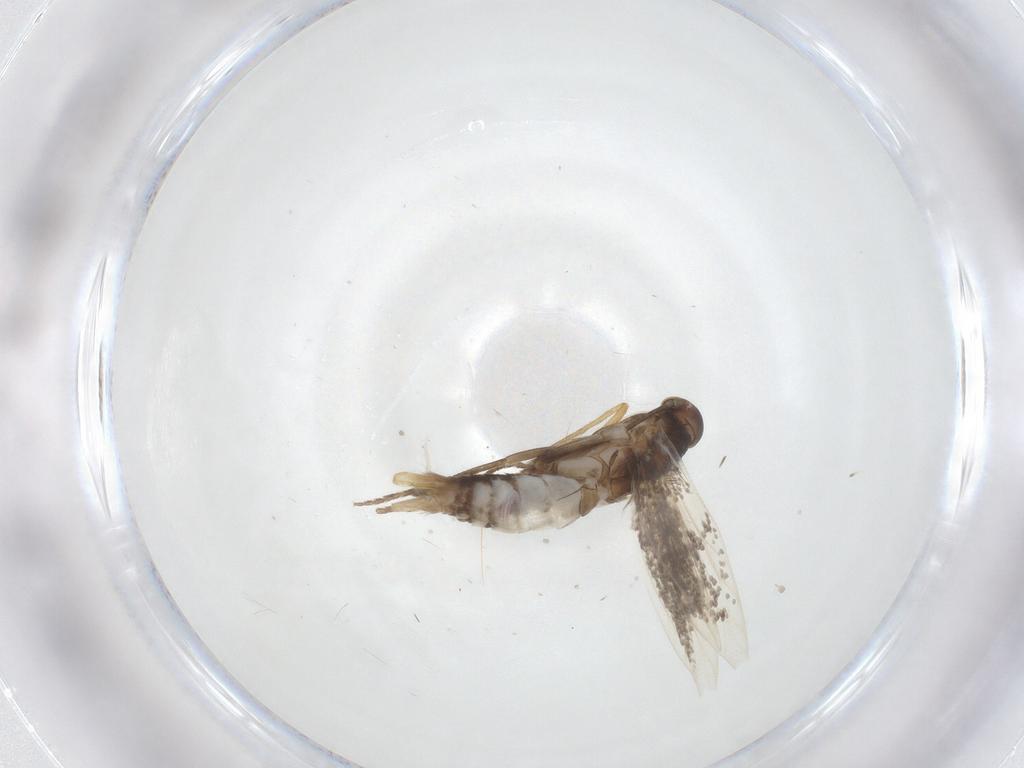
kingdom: Animalia
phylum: Arthropoda
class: Insecta
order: Lepidoptera
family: Elachistidae
